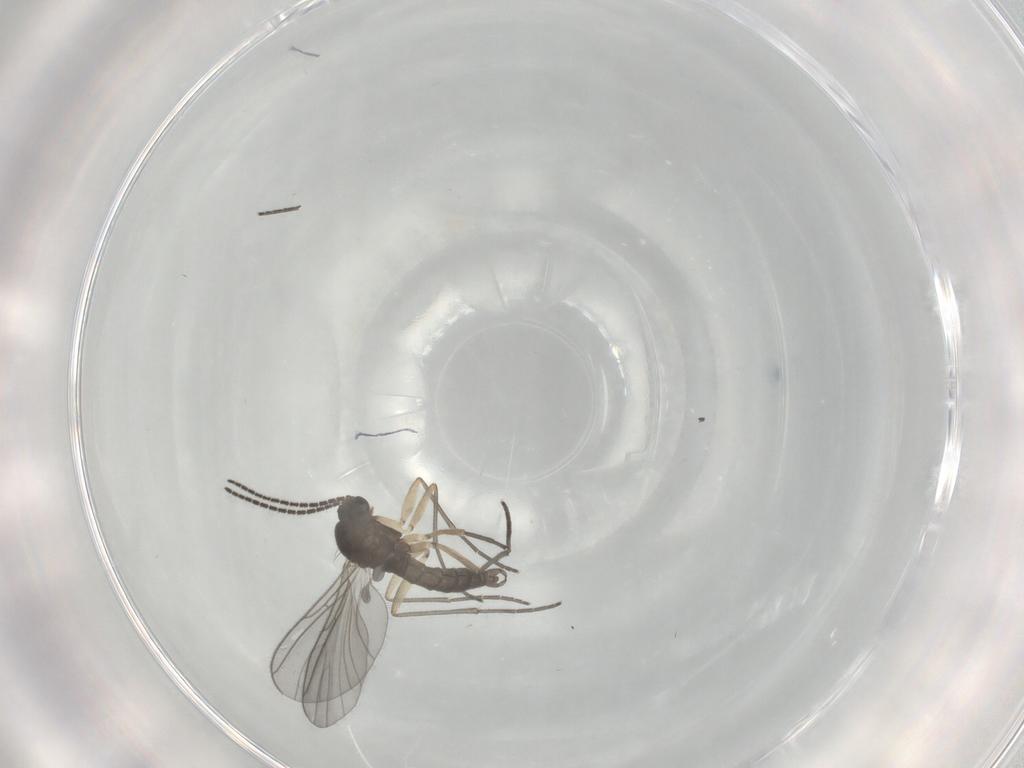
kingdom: Animalia
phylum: Arthropoda
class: Insecta
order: Diptera
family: Sciaridae
